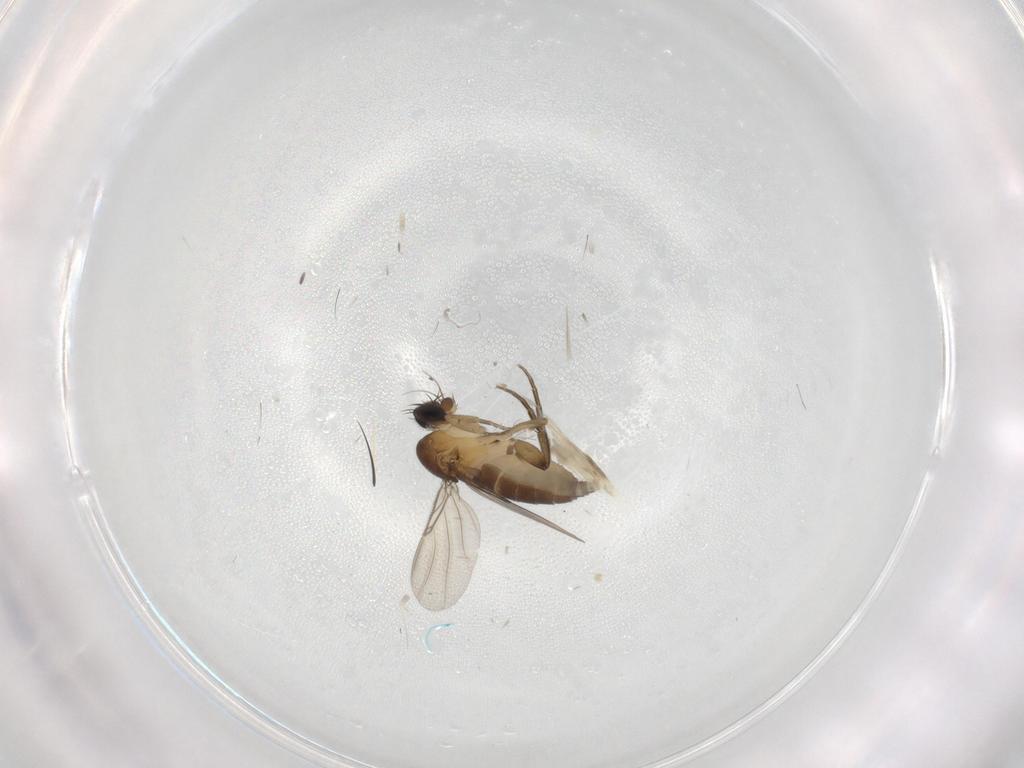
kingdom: Animalia
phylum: Arthropoda
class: Insecta
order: Diptera
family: Phoridae
